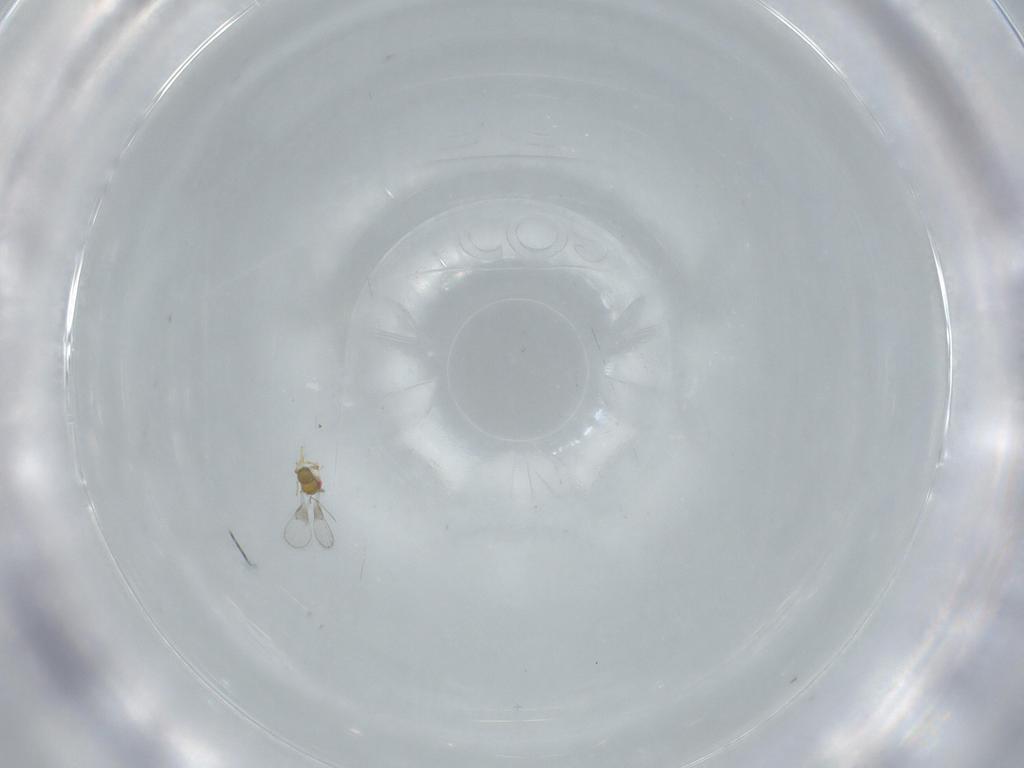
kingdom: Animalia
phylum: Arthropoda
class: Insecta
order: Hymenoptera
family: Trichogrammatidae
